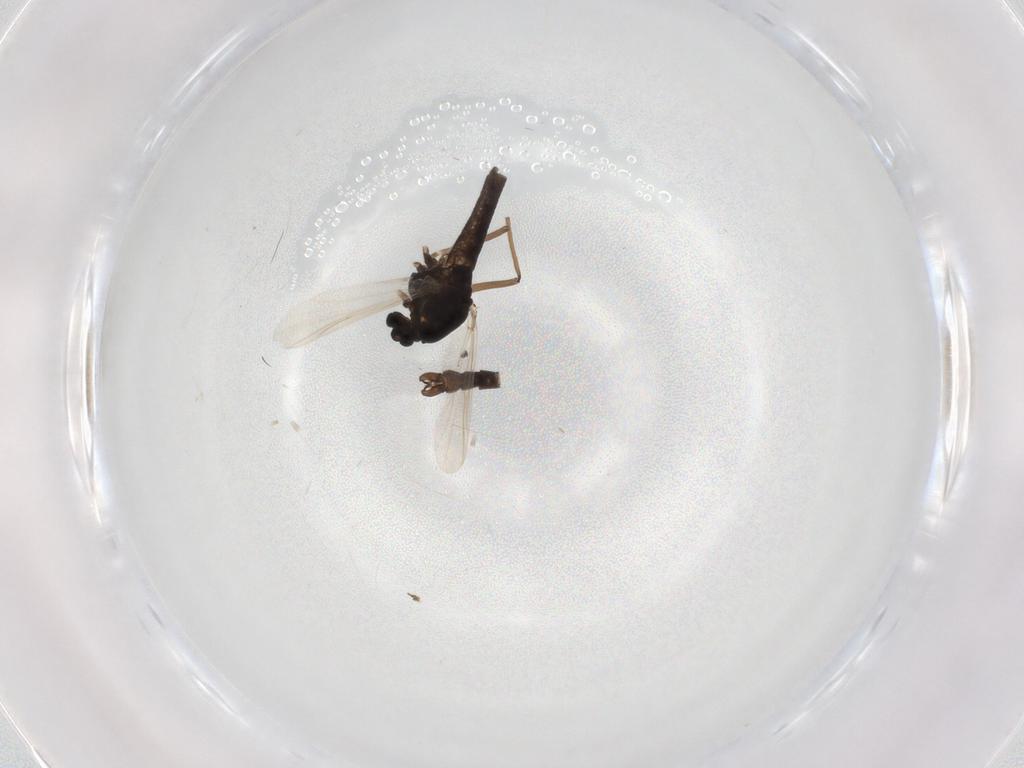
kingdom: Animalia
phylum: Arthropoda
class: Insecta
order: Diptera
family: Chironomidae
